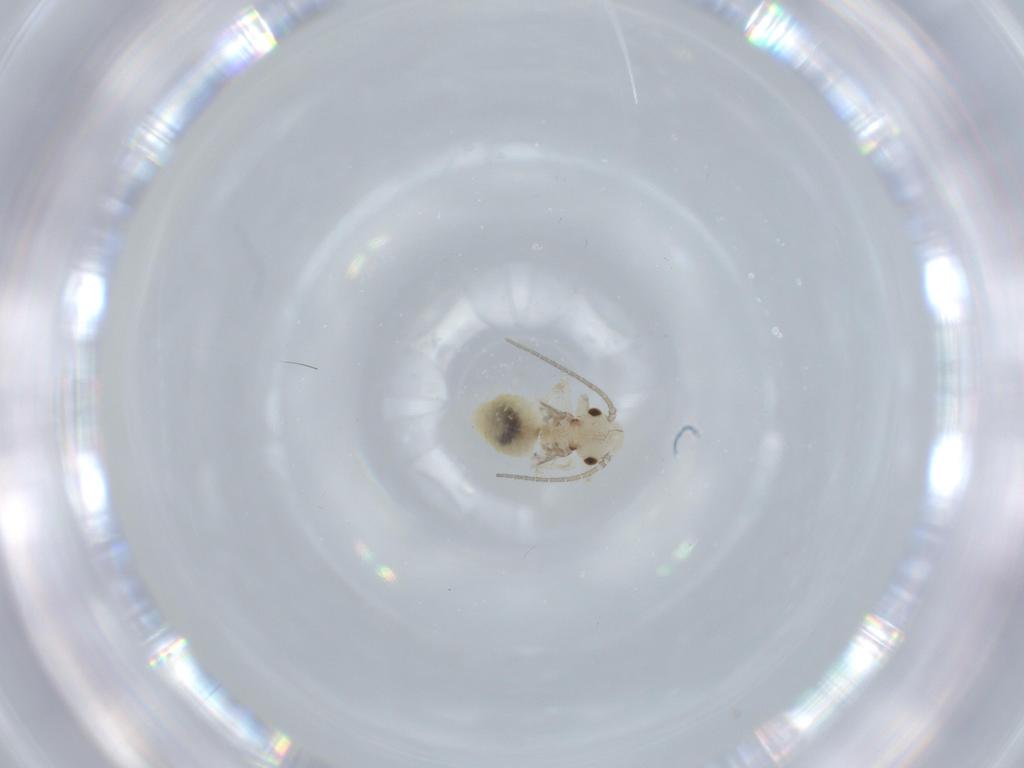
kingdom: Animalia
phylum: Arthropoda
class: Insecta
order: Psocodea
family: Caeciliusidae
